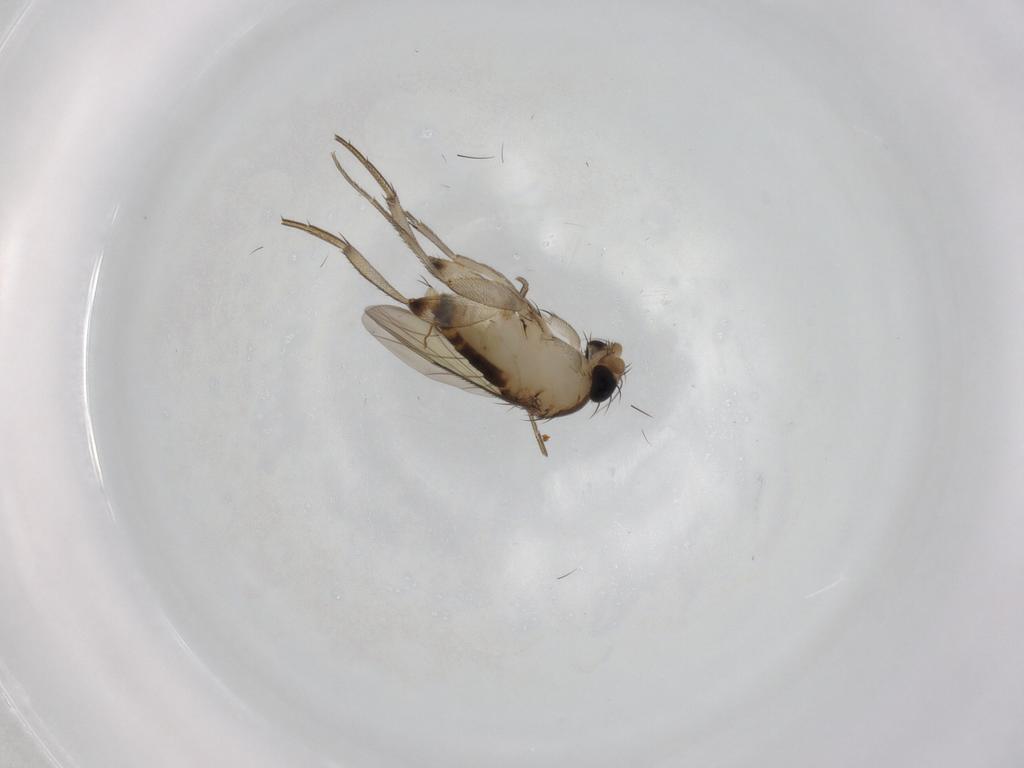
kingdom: Animalia
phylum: Arthropoda
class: Insecta
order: Diptera
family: Phoridae
